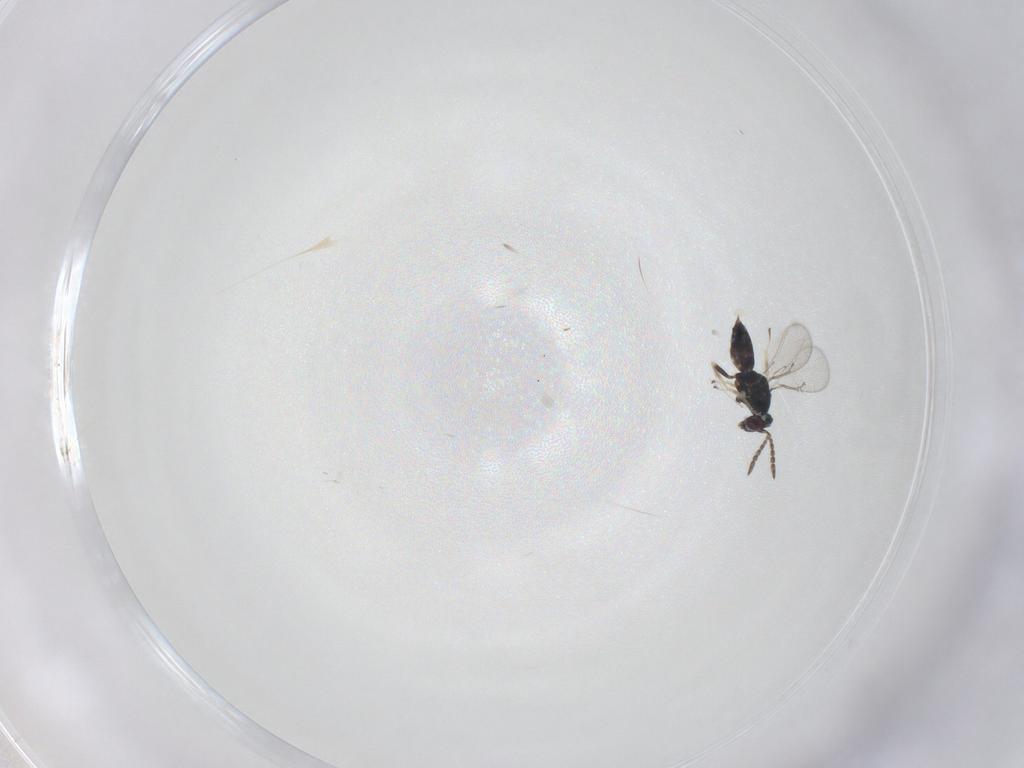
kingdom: Animalia
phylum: Arthropoda
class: Insecta
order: Hymenoptera
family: Eulophidae
